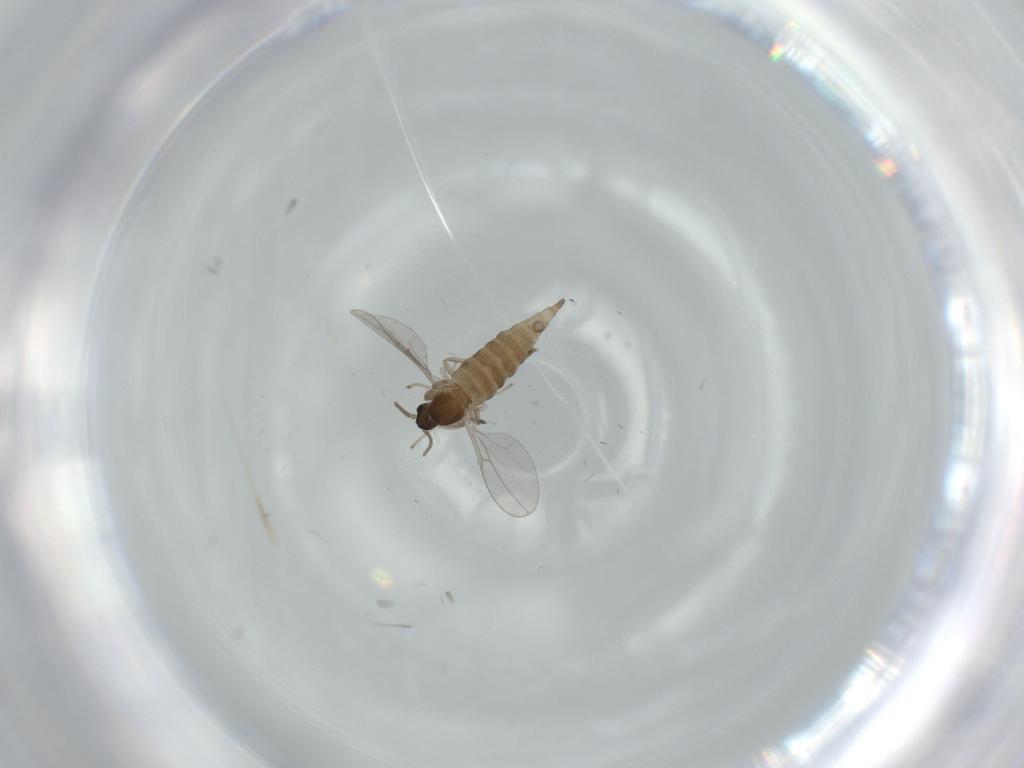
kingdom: Animalia
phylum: Arthropoda
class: Insecta
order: Diptera
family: Cecidomyiidae
